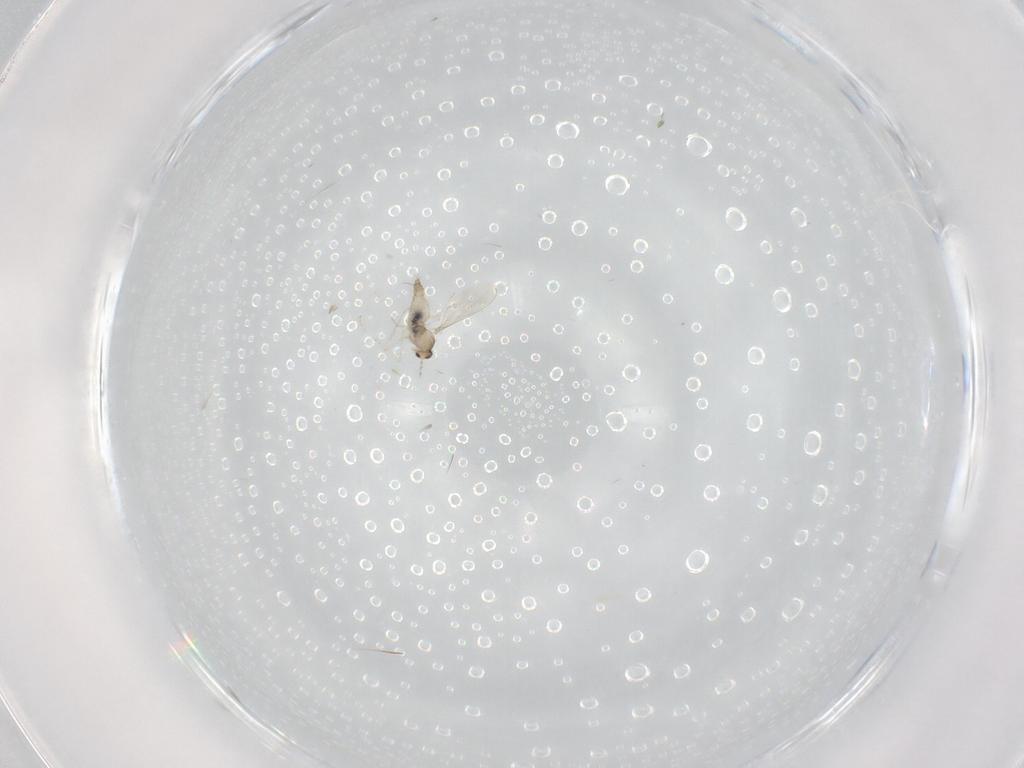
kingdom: Animalia
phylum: Arthropoda
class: Insecta
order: Diptera
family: Cecidomyiidae
